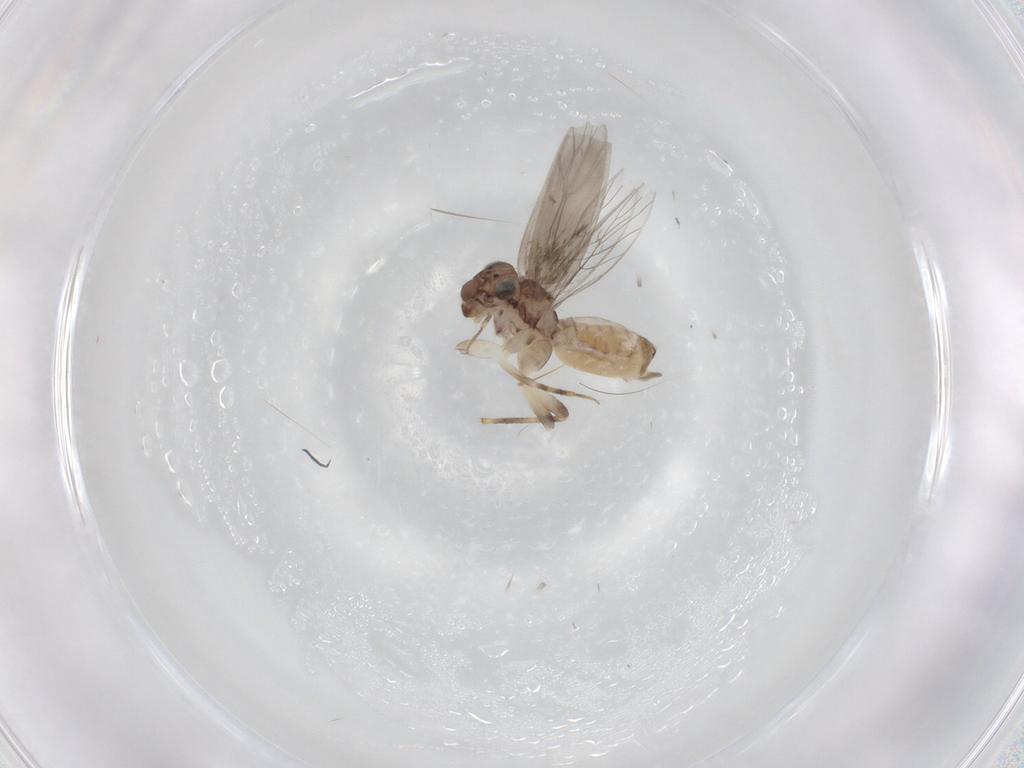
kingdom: Animalia
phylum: Arthropoda
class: Insecta
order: Psocodea
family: Lepidopsocidae
